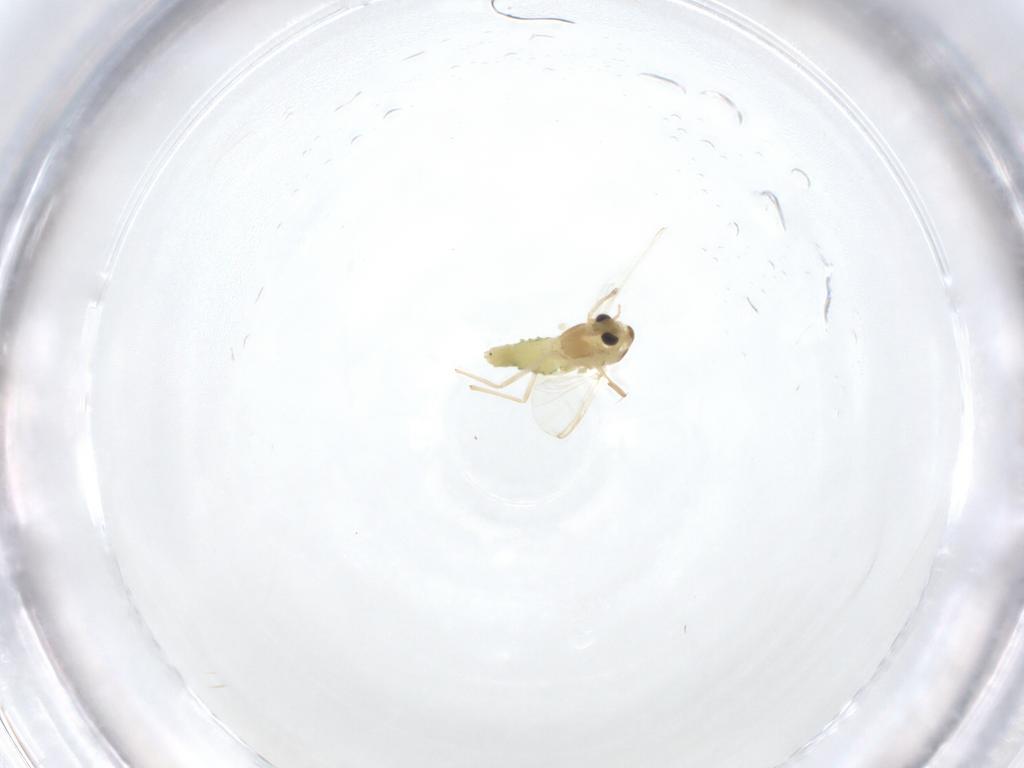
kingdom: Animalia
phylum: Arthropoda
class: Insecta
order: Diptera
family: Chironomidae
